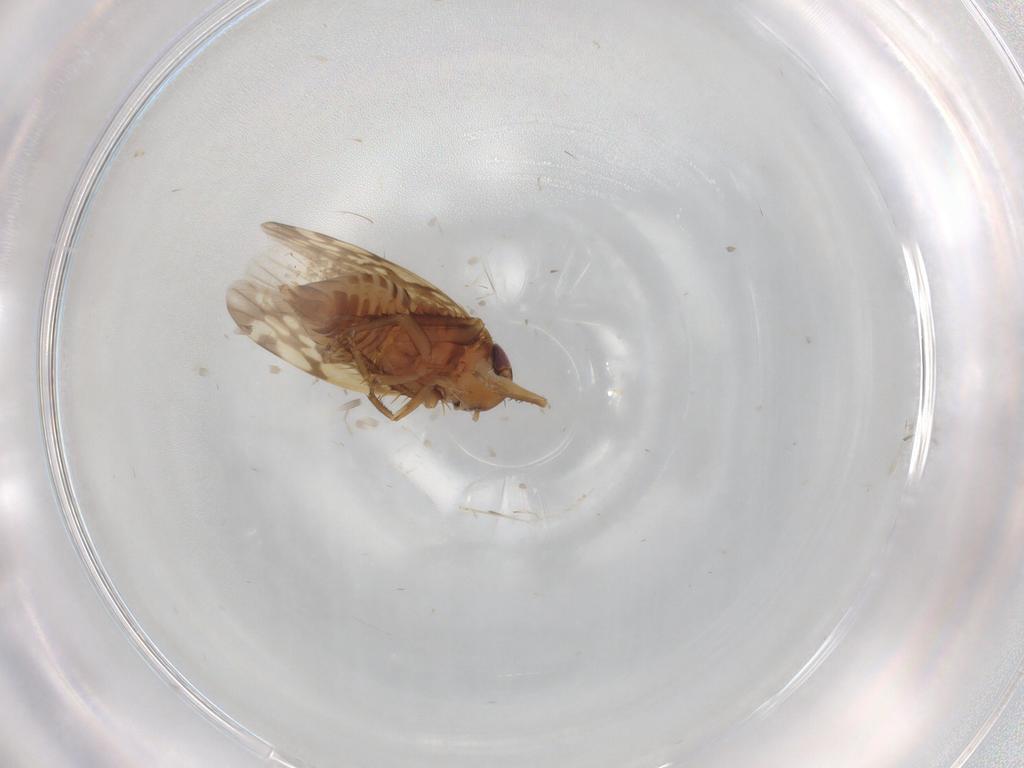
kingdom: Animalia
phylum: Arthropoda
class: Insecta
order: Hemiptera
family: Cicadellidae
